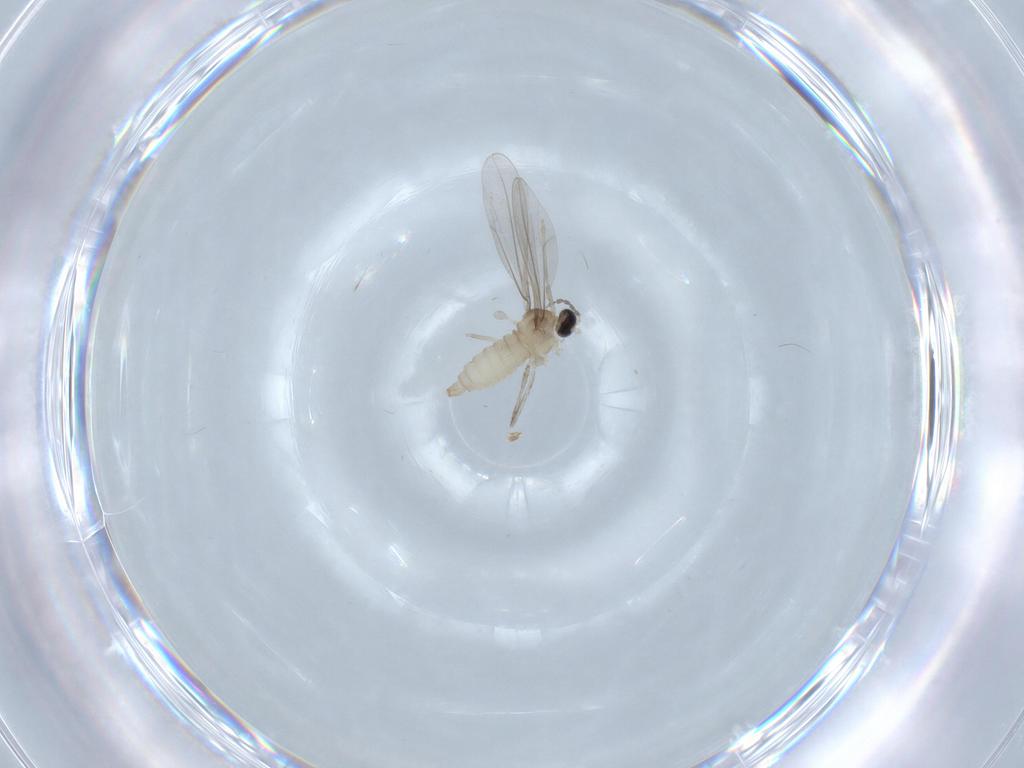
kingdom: Animalia
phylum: Arthropoda
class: Insecta
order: Diptera
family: Cecidomyiidae
